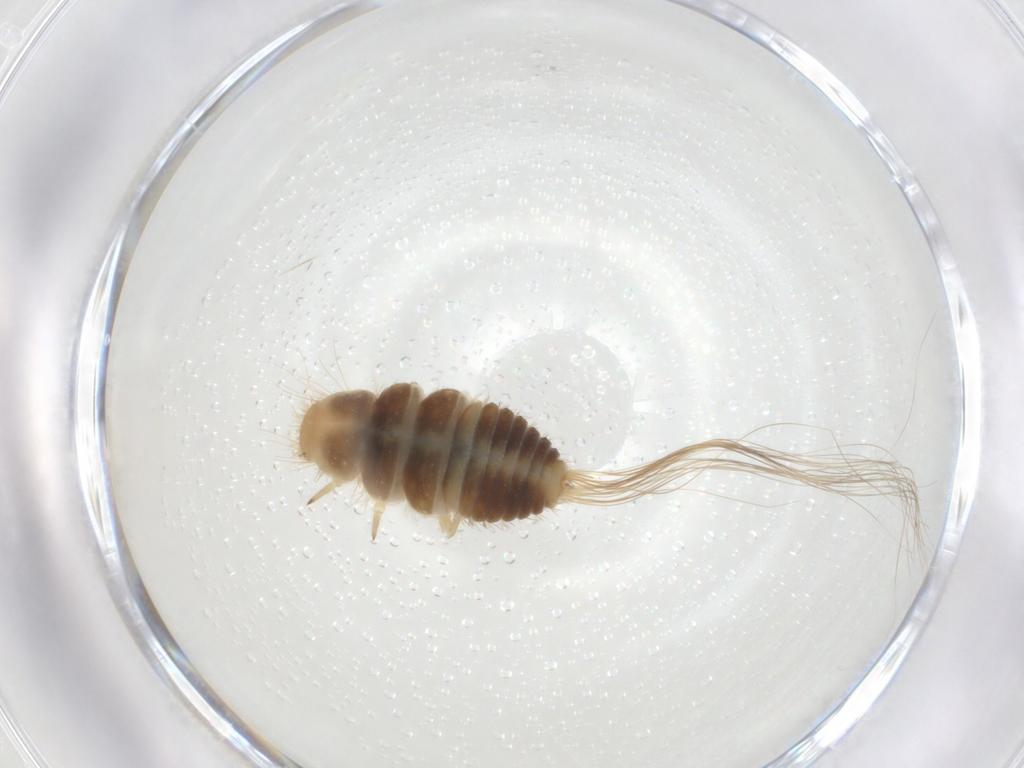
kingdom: Animalia
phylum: Arthropoda
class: Insecta
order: Coleoptera
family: Dermestidae
